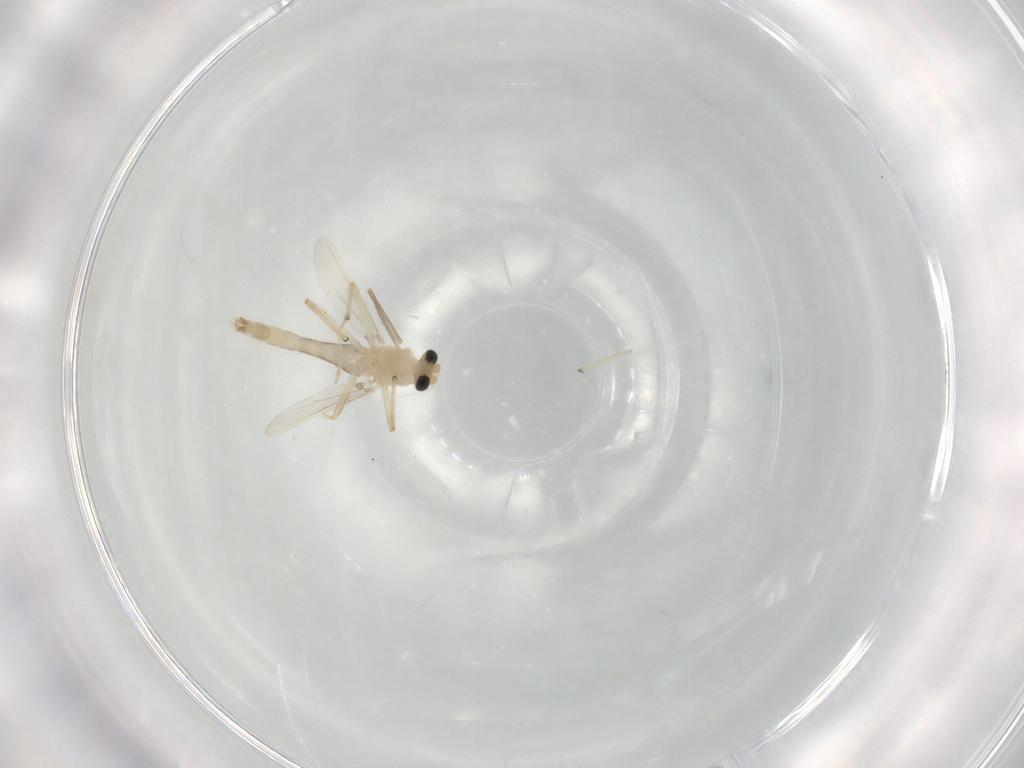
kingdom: Animalia
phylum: Arthropoda
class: Insecta
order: Diptera
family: Chironomidae
